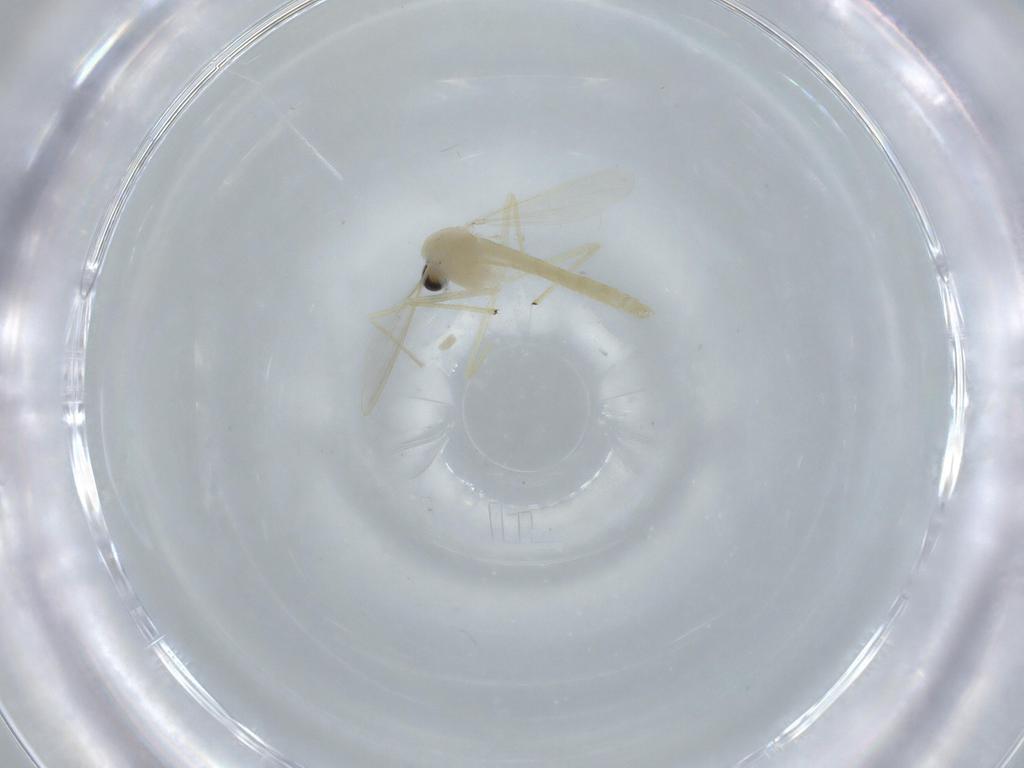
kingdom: Animalia
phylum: Arthropoda
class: Insecta
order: Diptera
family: Chironomidae
